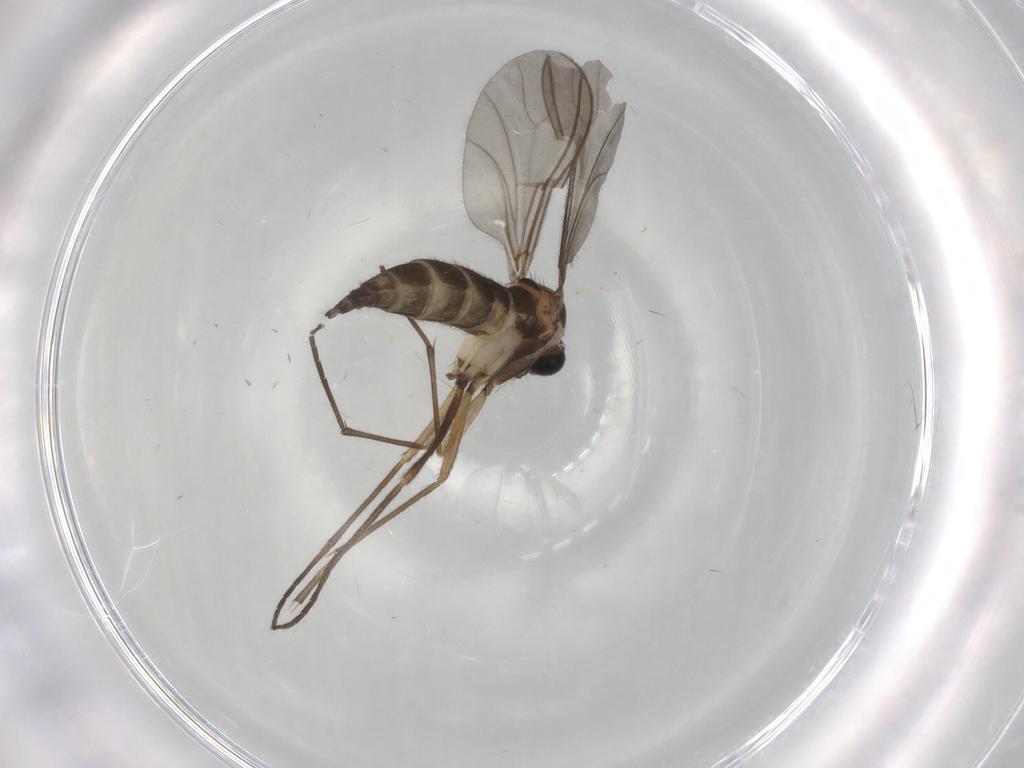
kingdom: Animalia
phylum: Arthropoda
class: Insecta
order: Diptera
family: Sciaridae
